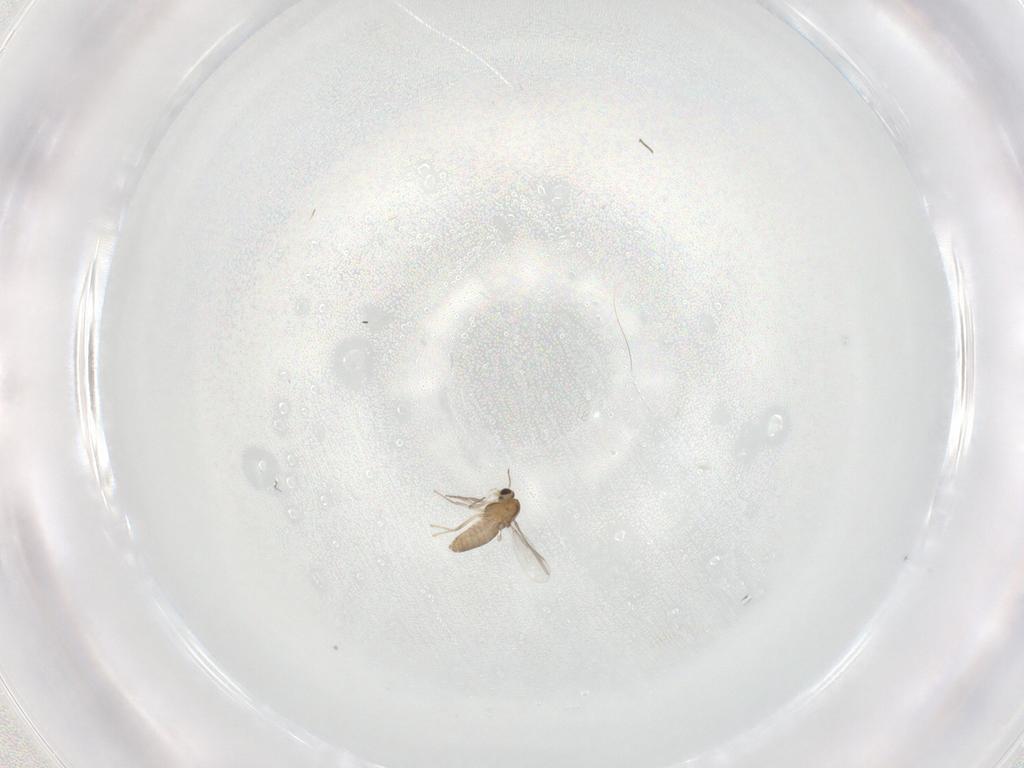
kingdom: Animalia
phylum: Arthropoda
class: Insecta
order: Diptera
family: Chironomidae
